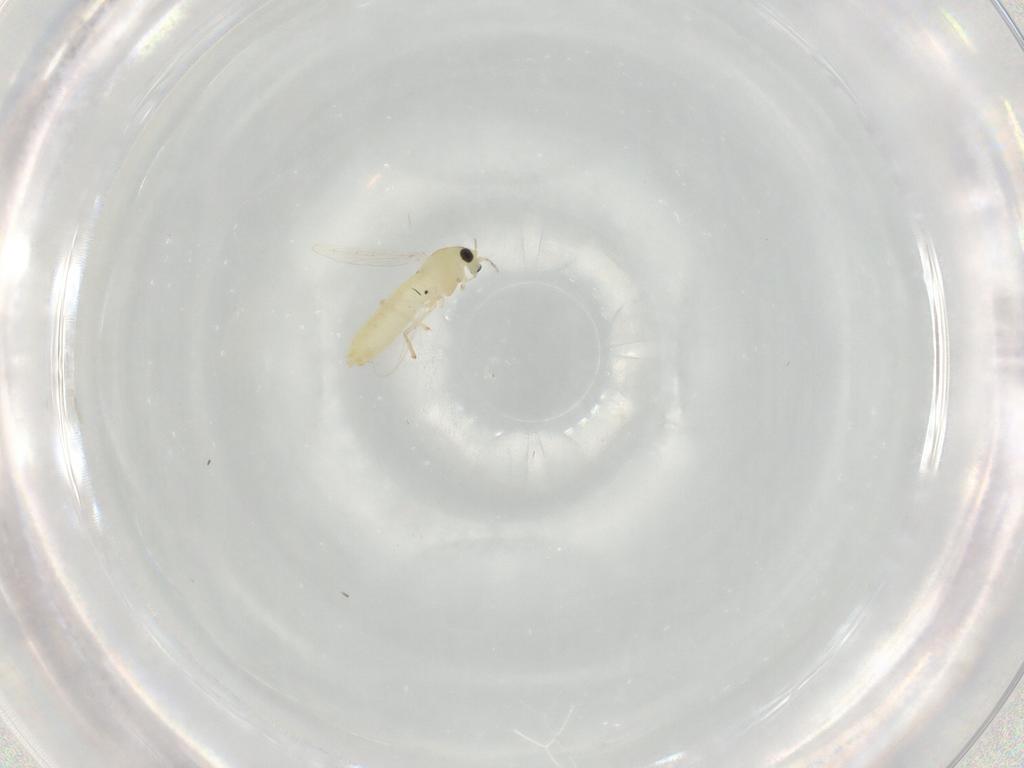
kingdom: Animalia
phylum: Arthropoda
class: Insecta
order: Diptera
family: Chironomidae
